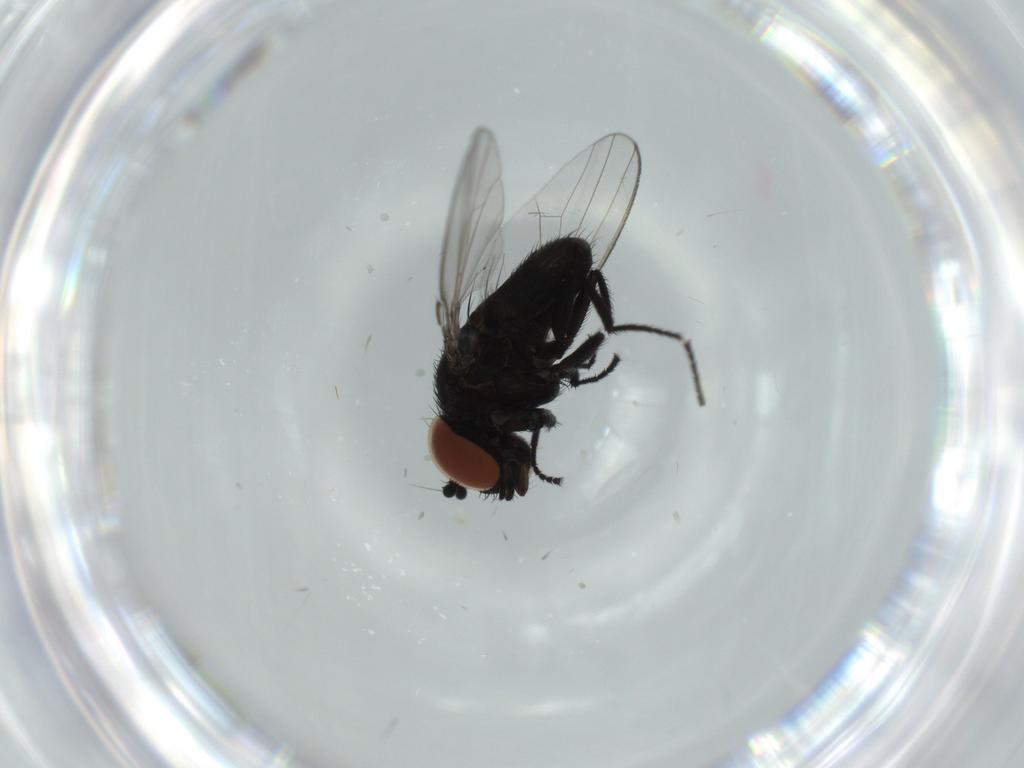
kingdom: Animalia
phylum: Arthropoda
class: Insecta
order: Diptera
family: Milichiidae
